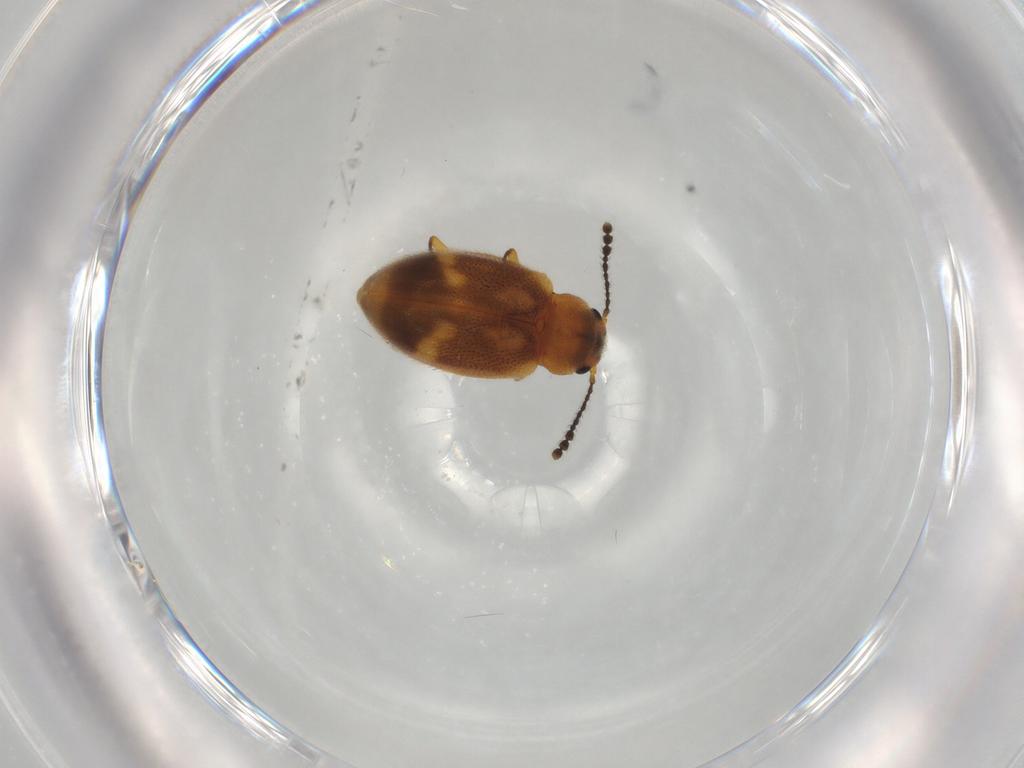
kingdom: Animalia
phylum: Arthropoda
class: Insecta
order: Coleoptera
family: Erotylidae
